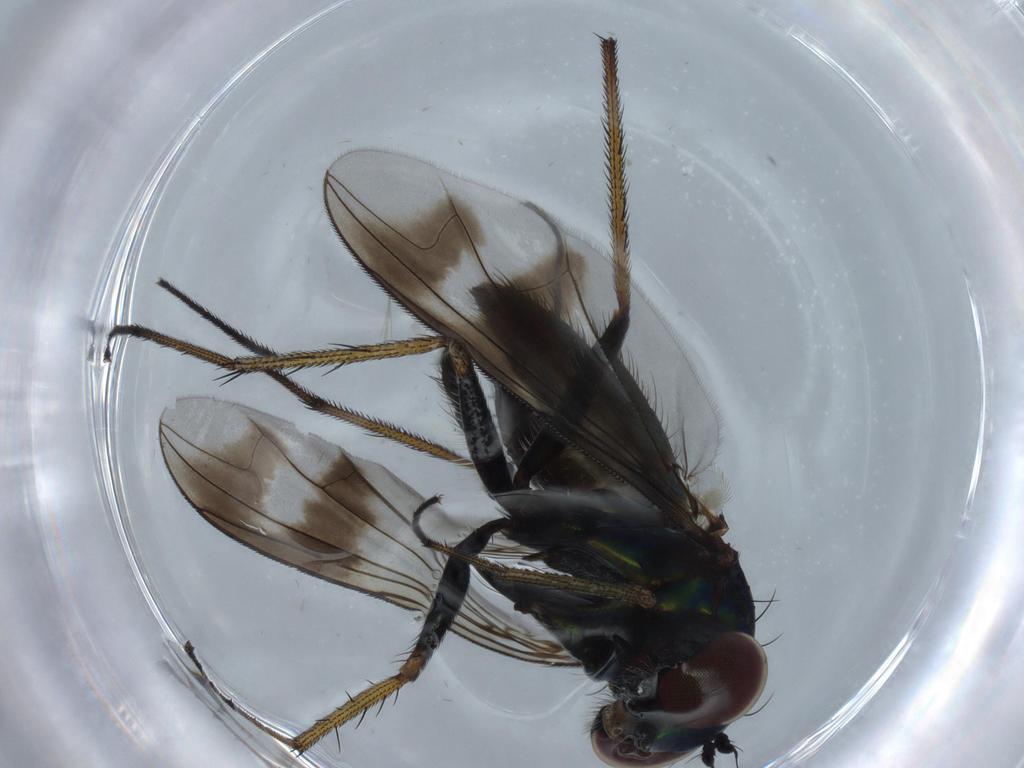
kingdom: Animalia
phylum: Arthropoda
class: Insecta
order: Diptera
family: Dolichopodidae
